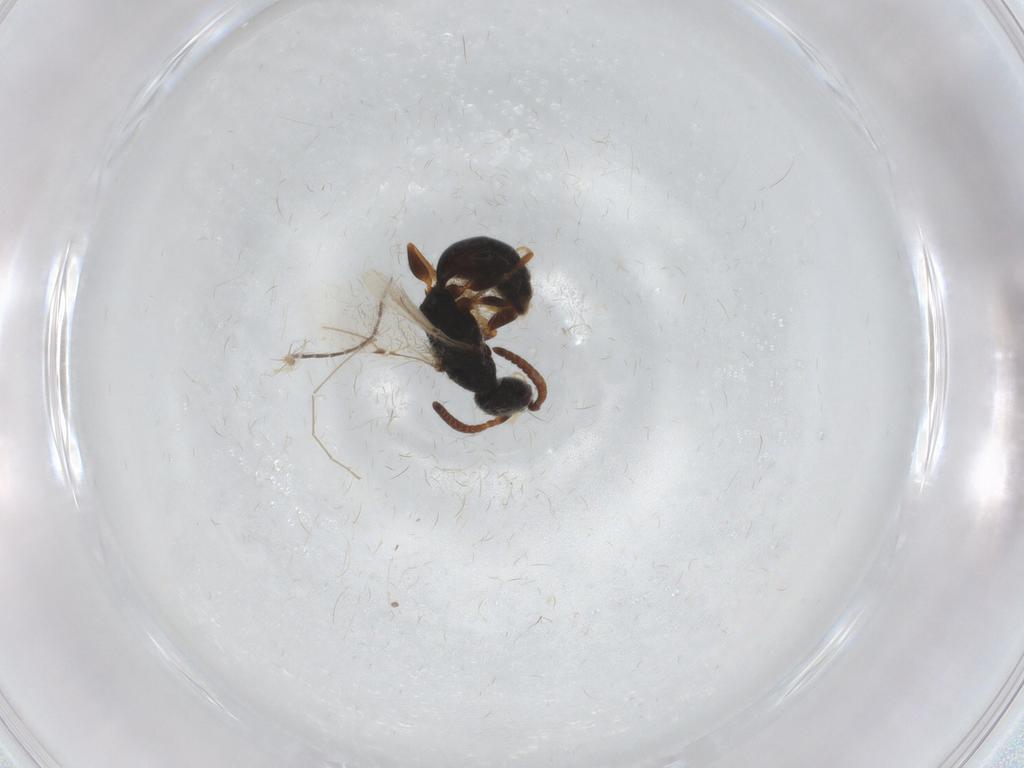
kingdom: Animalia
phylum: Arthropoda
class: Insecta
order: Hymenoptera
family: Bethylidae
